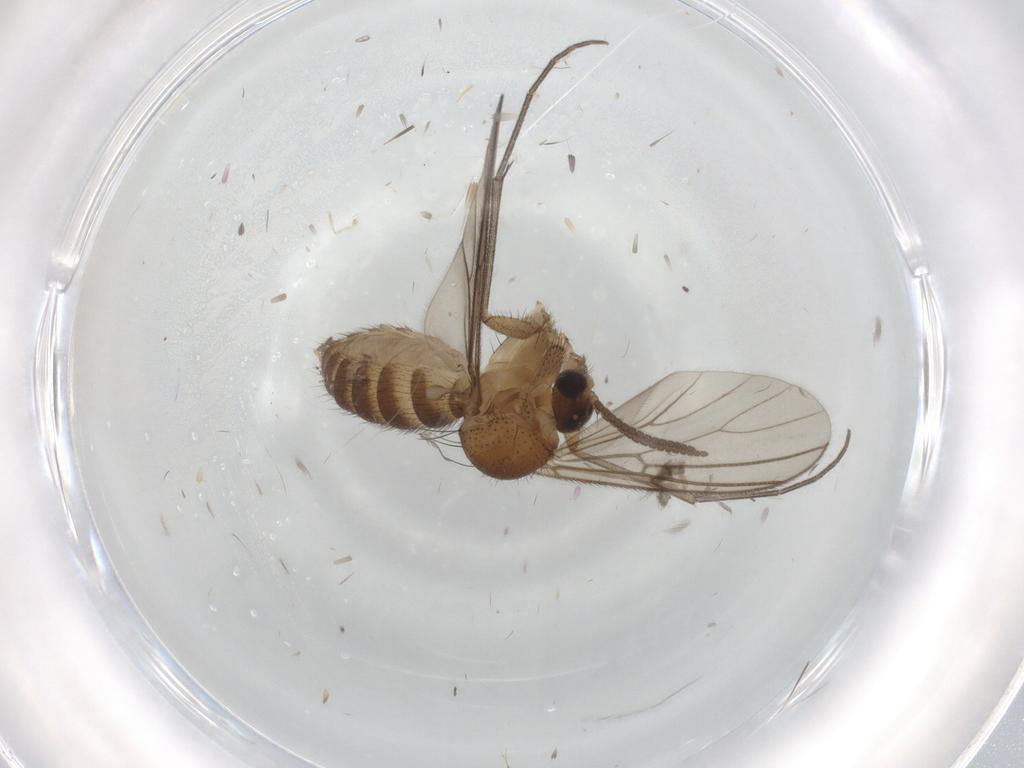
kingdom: Animalia
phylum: Arthropoda
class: Insecta
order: Diptera
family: Mycetophilidae
